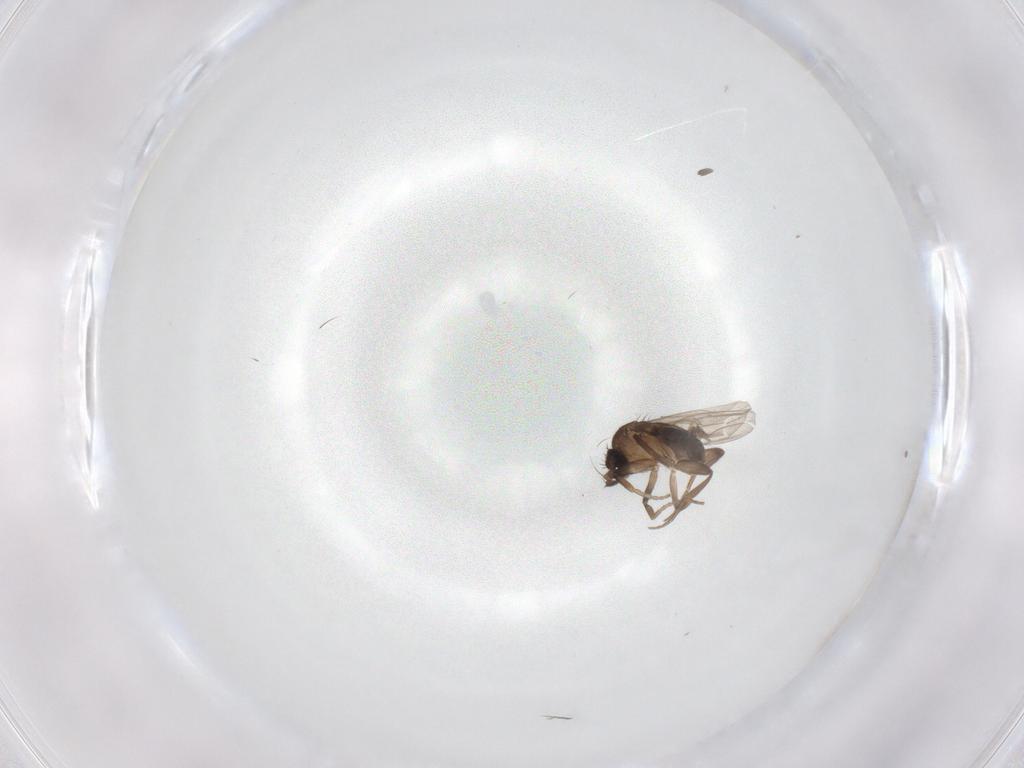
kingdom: Animalia
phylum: Arthropoda
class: Insecta
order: Diptera
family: Phoridae
